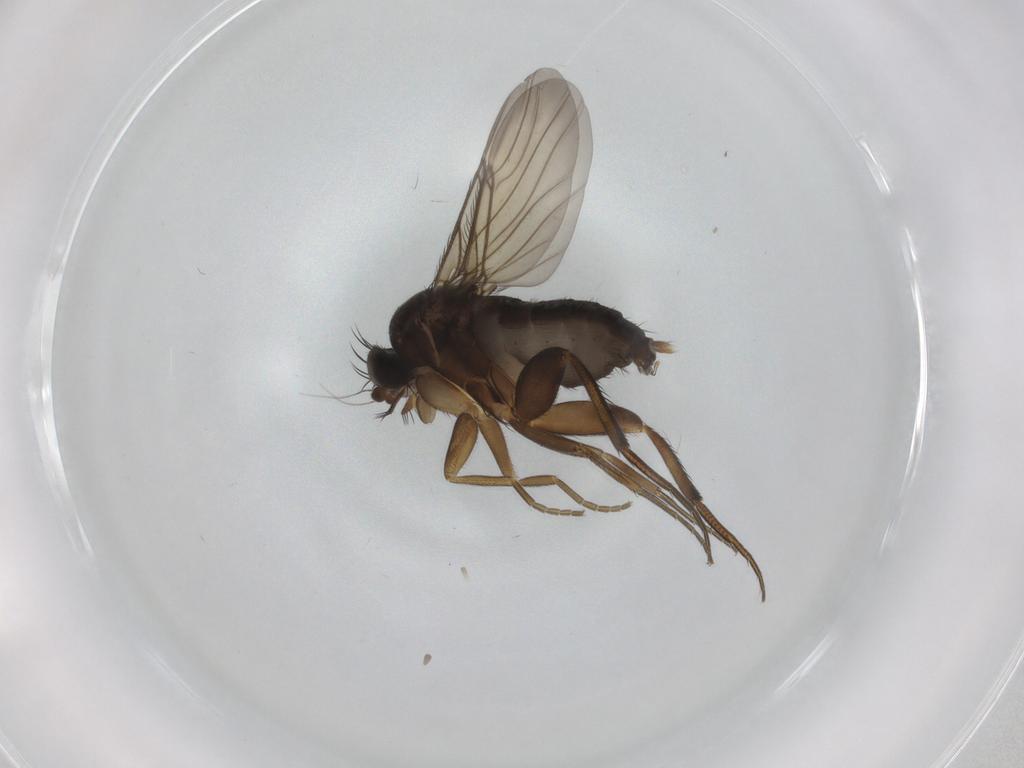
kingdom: Animalia
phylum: Arthropoda
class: Insecta
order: Diptera
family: Phoridae
